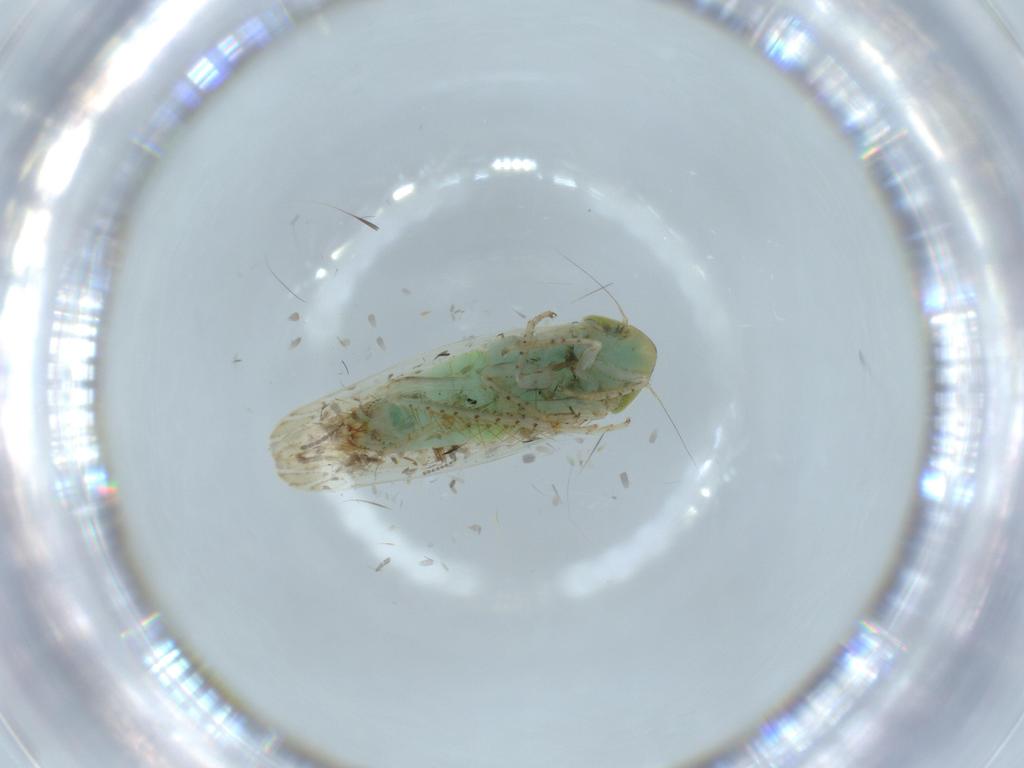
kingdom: Animalia
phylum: Arthropoda
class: Insecta
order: Hemiptera
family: Cicadellidae
